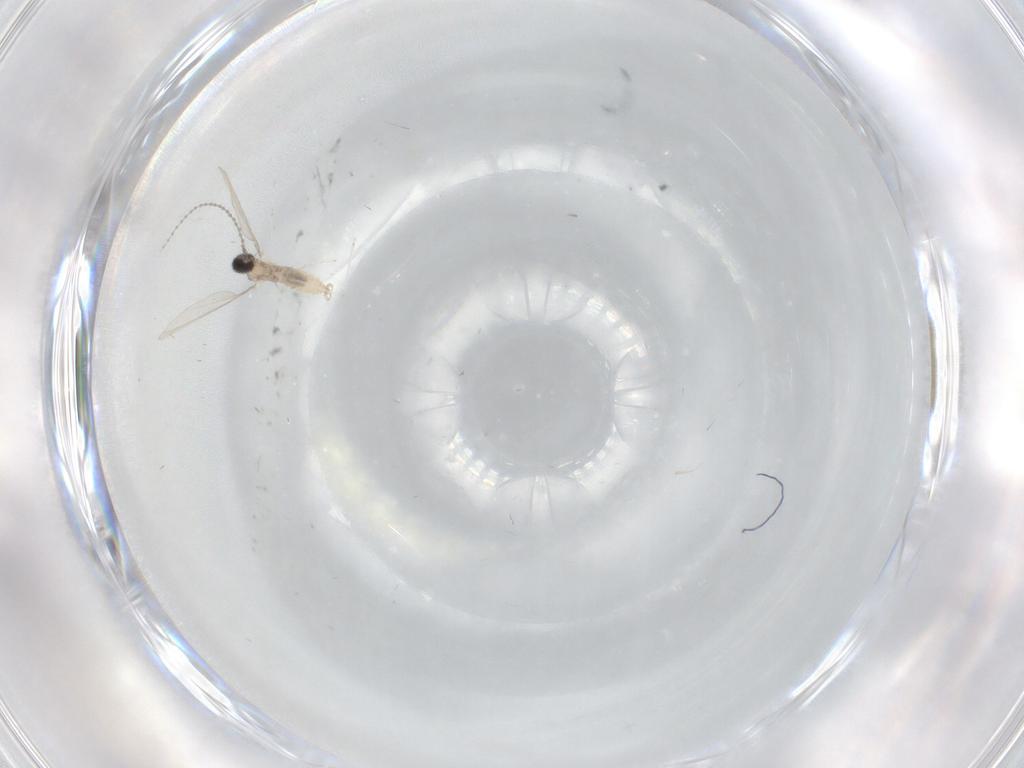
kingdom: Animalia
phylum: Arthropoda
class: Insecta
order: Diptera
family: Cecidomyiidae
